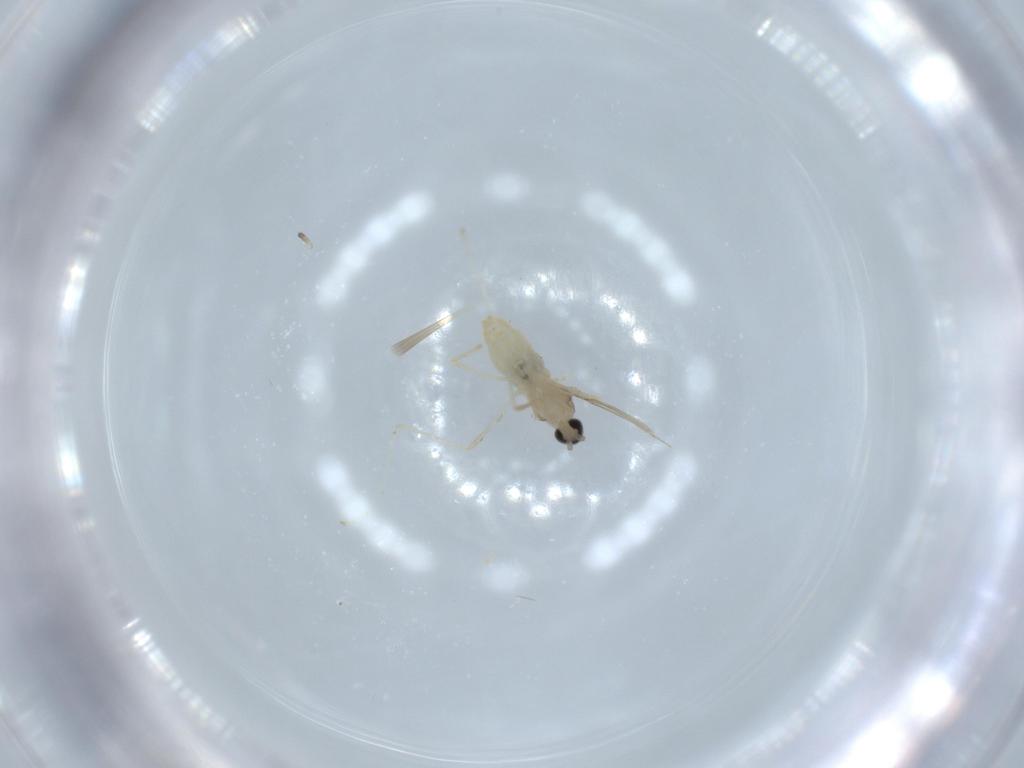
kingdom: Animalia
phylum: Arthropoda
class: Insecta
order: Diptera
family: Cecidomyiidae
